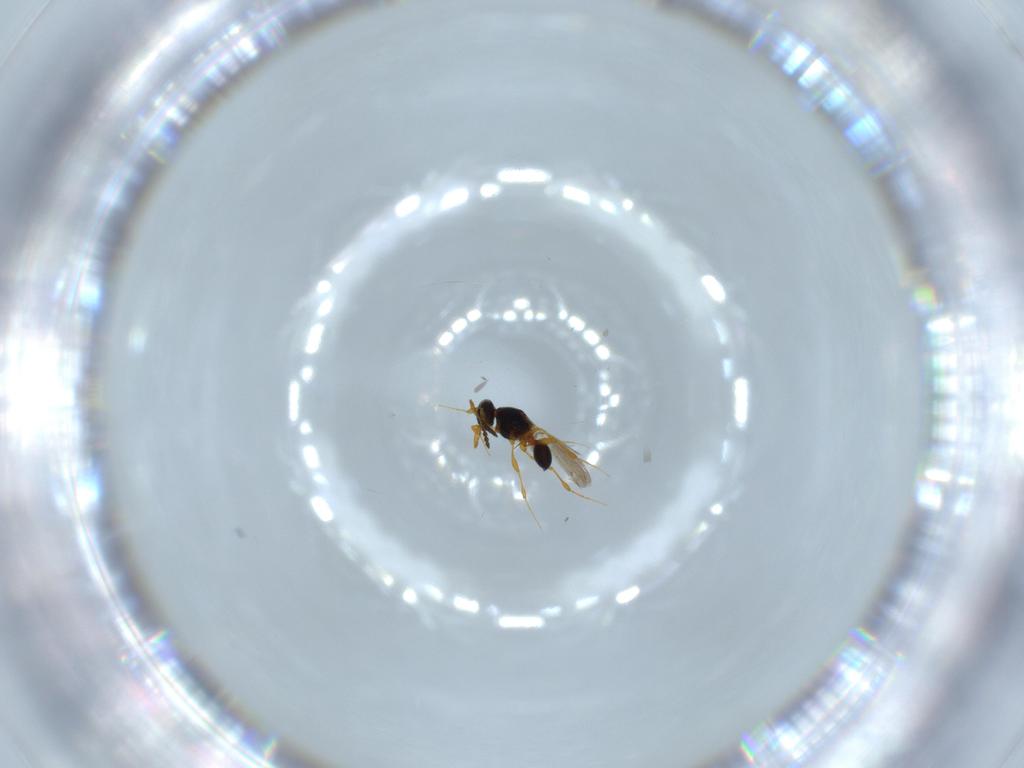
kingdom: Animalia
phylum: Arthropoda
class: Insecta
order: Hymenoptera
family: Platygastridae
